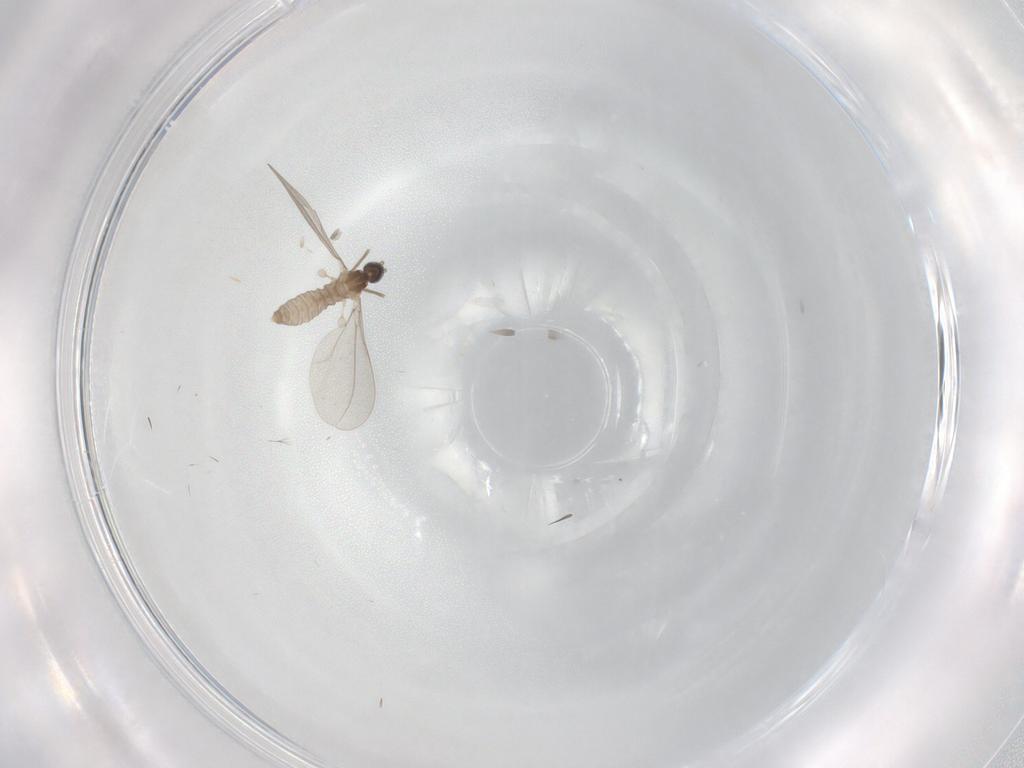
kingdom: Animalia
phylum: Arthropoda
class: Insecta
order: Diptera
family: Cecidomyiidae
